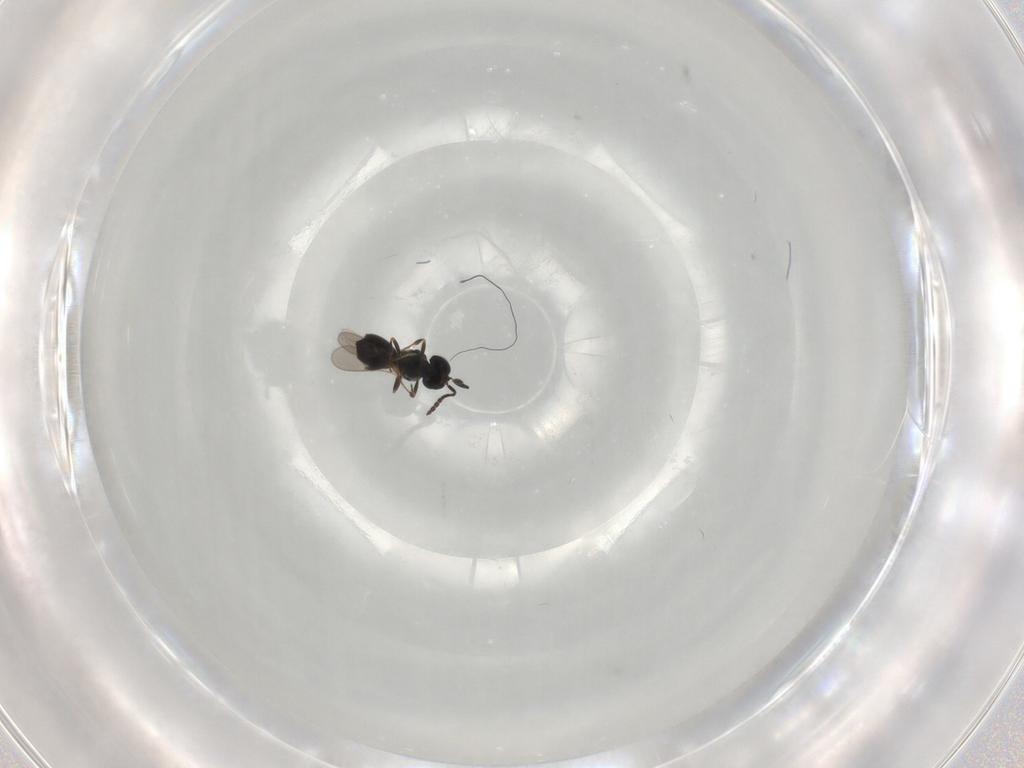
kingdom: Animalia
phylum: Arthropoda
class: Insecta
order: Hymenoptera
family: Scelionidae
